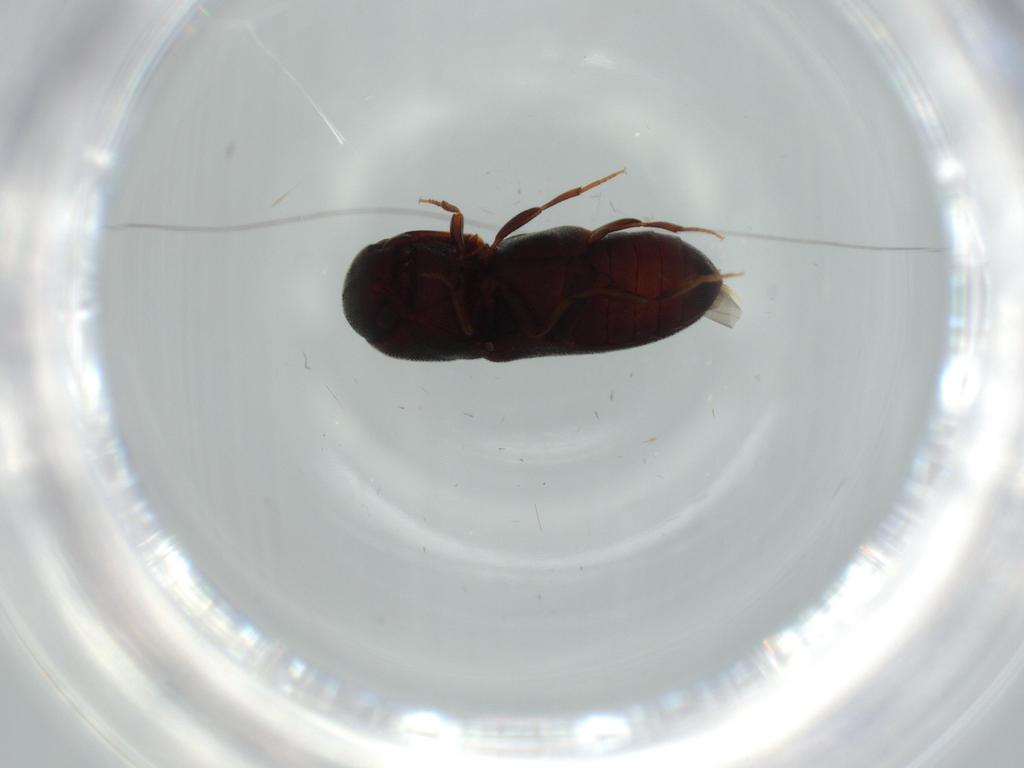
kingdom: Animalia
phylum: Arthropoda
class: Insecta
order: Coleoptera
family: Eucnemidae
